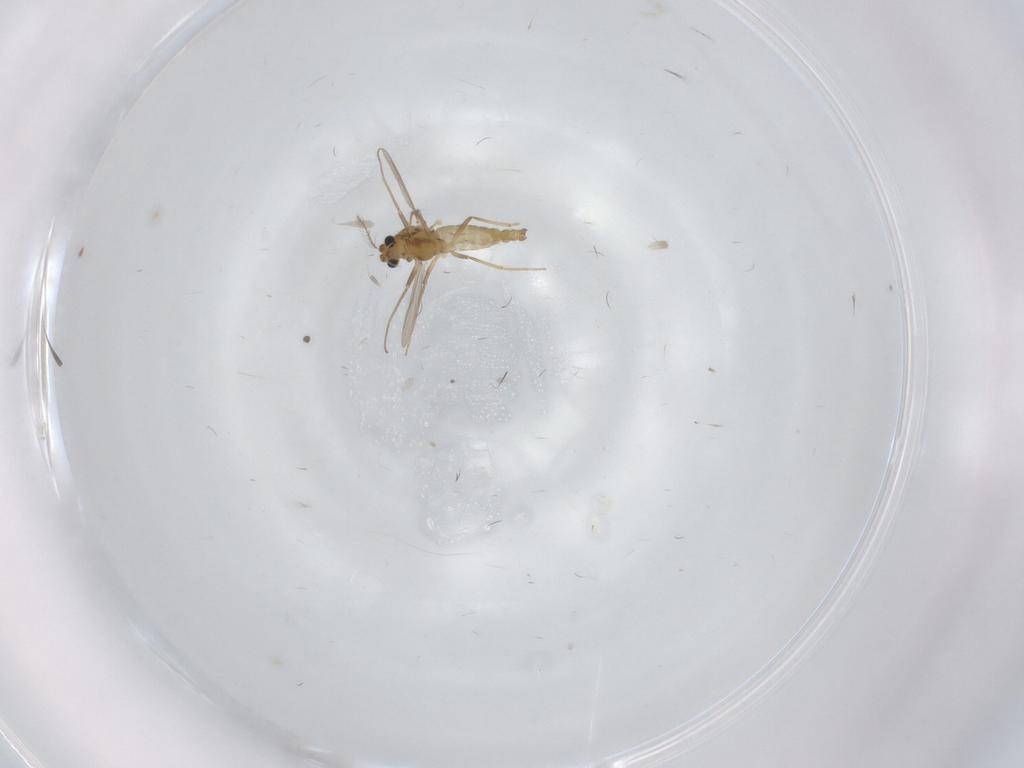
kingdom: Animalia
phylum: Arthropoda
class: Insecta
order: Diptera
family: Chironomidae
